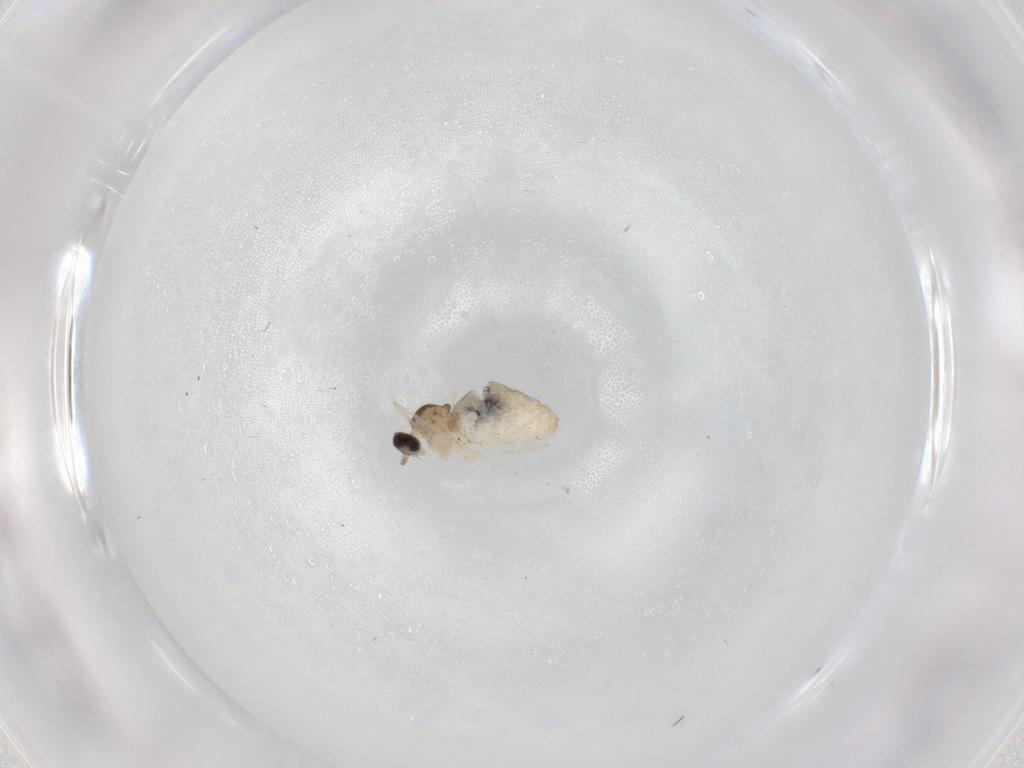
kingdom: Animalia
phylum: Arthropoda
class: Insecta
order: Diptera
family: Cecidomyiidae
